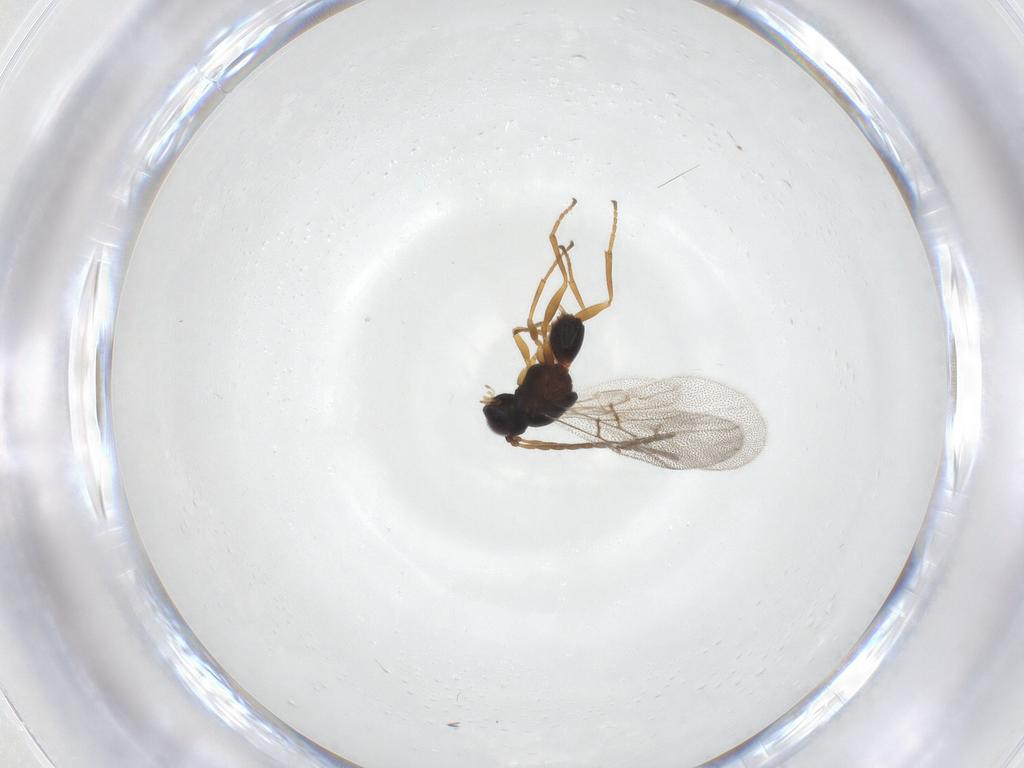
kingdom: Animalia
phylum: Arthropoda
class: Insecta
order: Hymenoptera
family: Cynipidae
